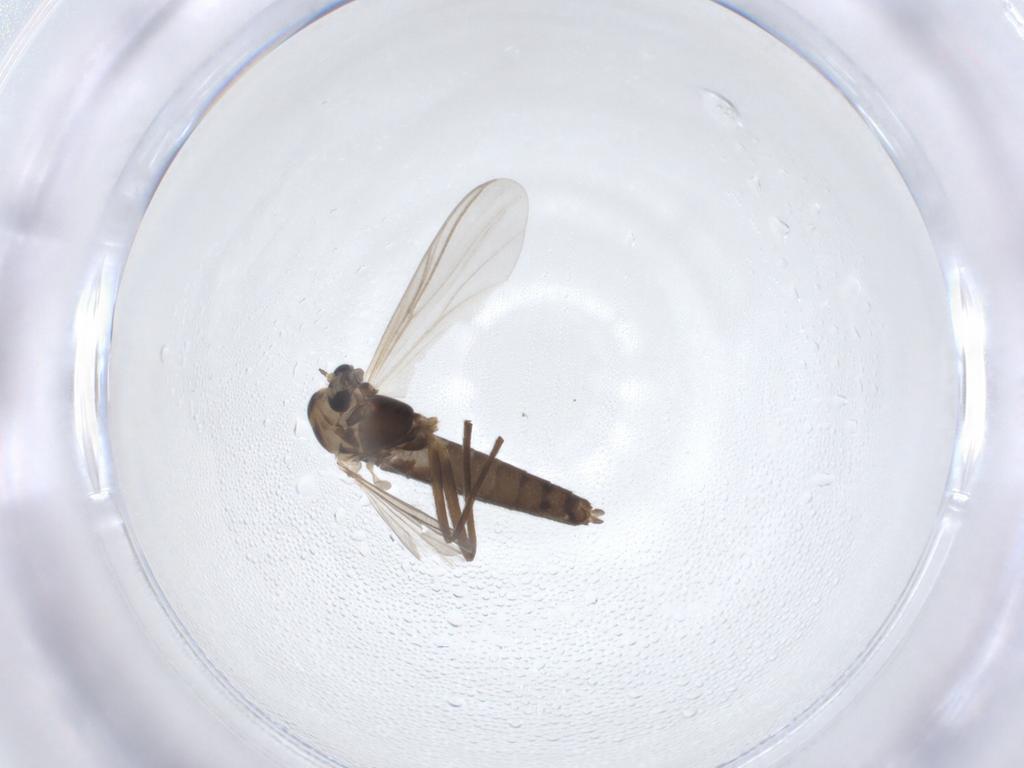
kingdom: Animalia
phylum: Arthropoda
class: Insecta
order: Diptera
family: Chironomidae
